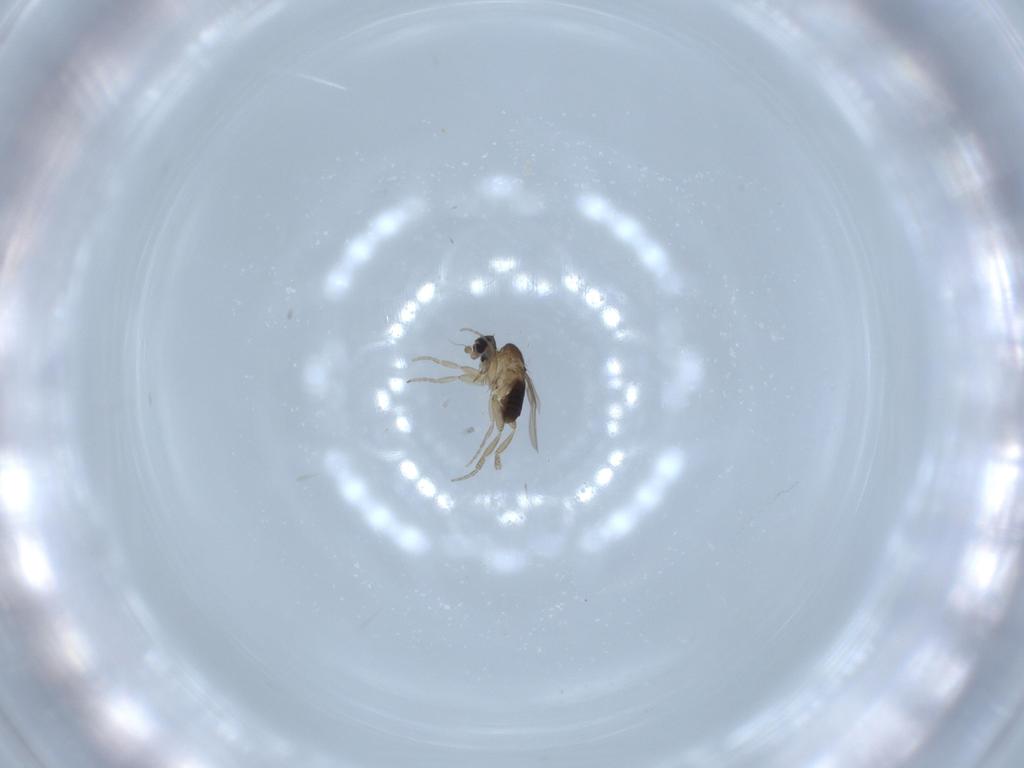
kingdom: Animalia
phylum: Arthropoda
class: Insecta
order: Diptera
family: Phoridae
